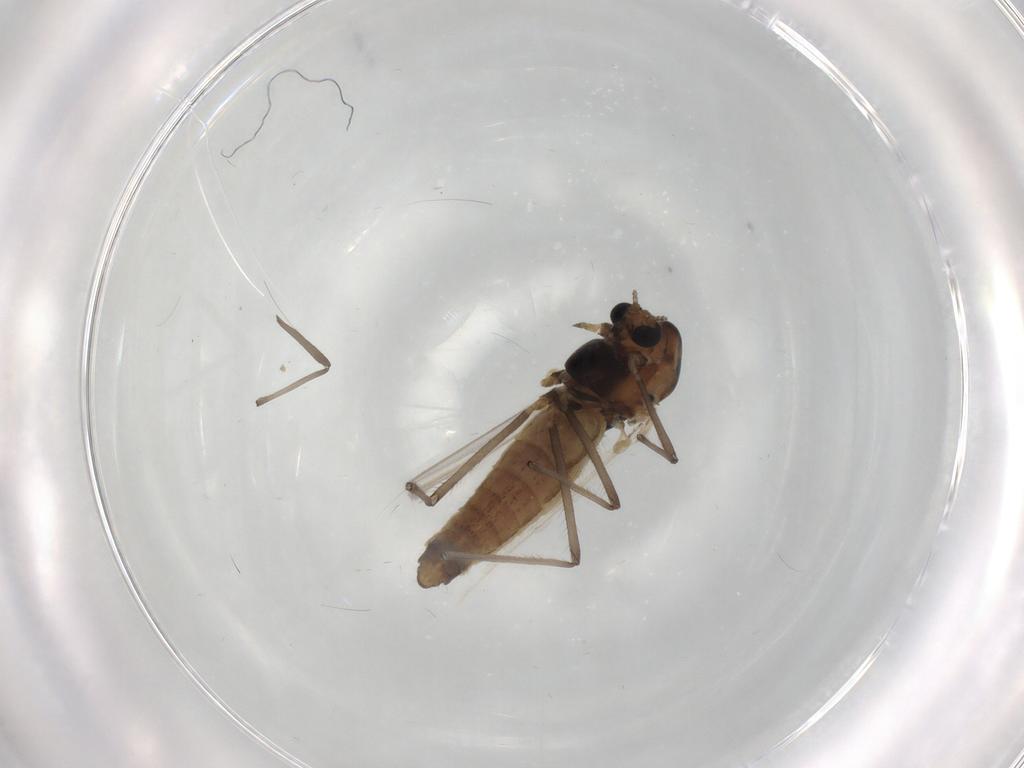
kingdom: Animalia
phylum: Arthropoda
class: Insecta
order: Diptera
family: Chironomidae
